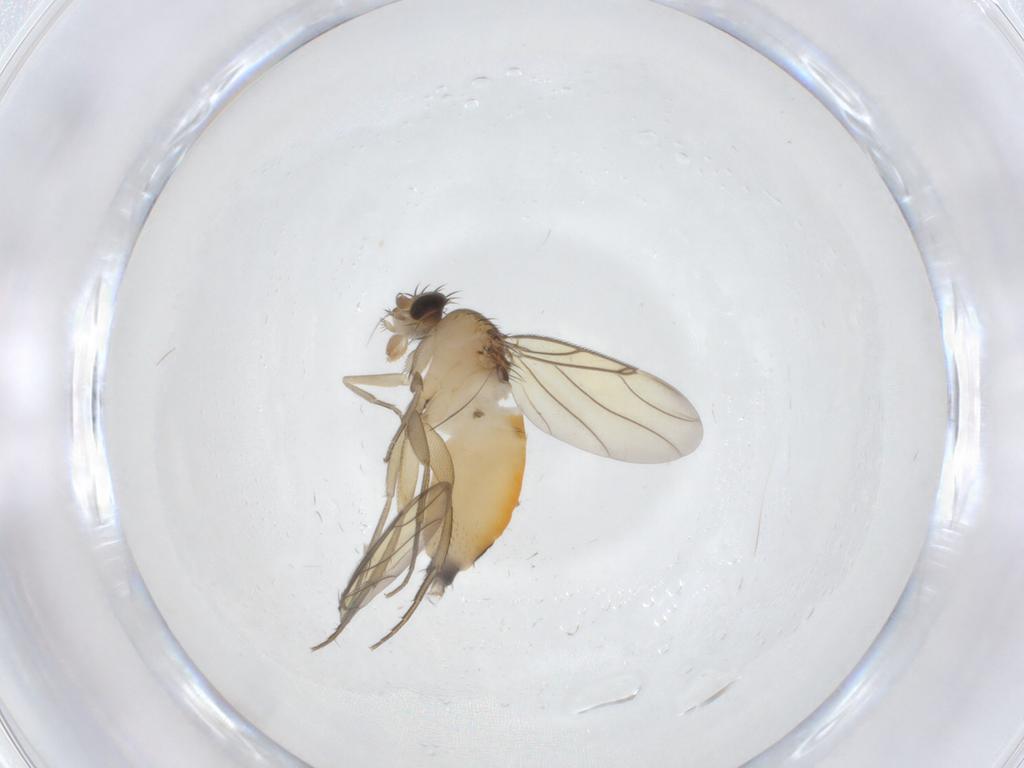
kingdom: Animalia
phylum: Arthropoda
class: Insecta
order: Diptera
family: Phoridae
